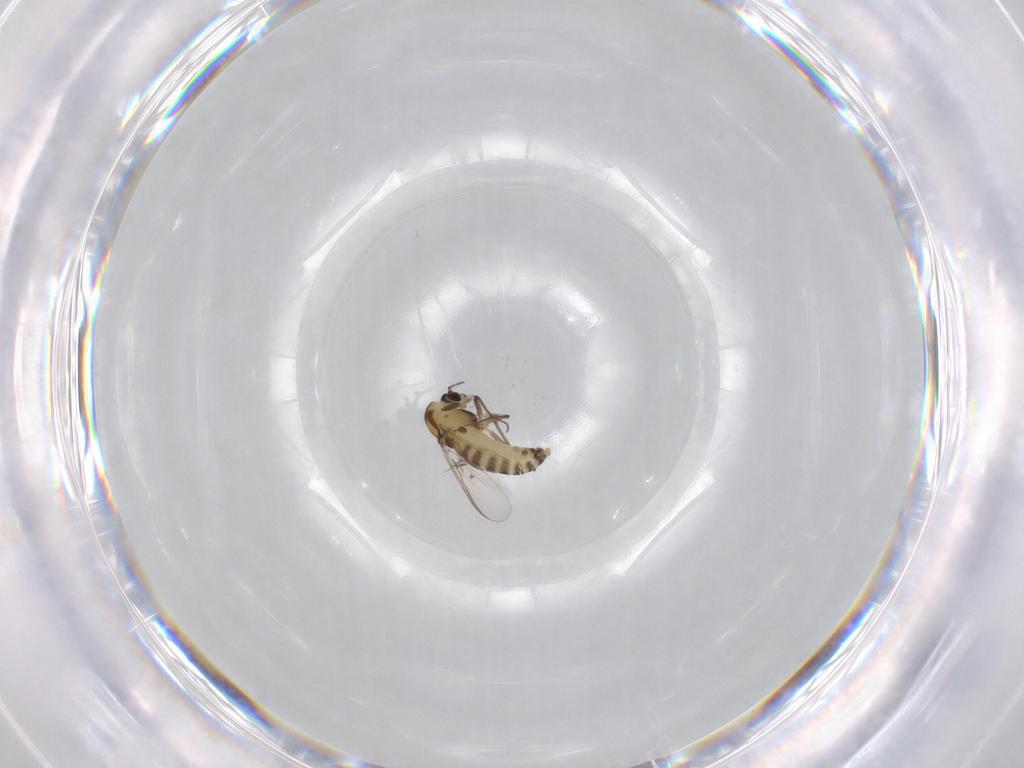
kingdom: Animalia
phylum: Arthropoda
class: Insecta
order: Diptera
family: Chironomidae
